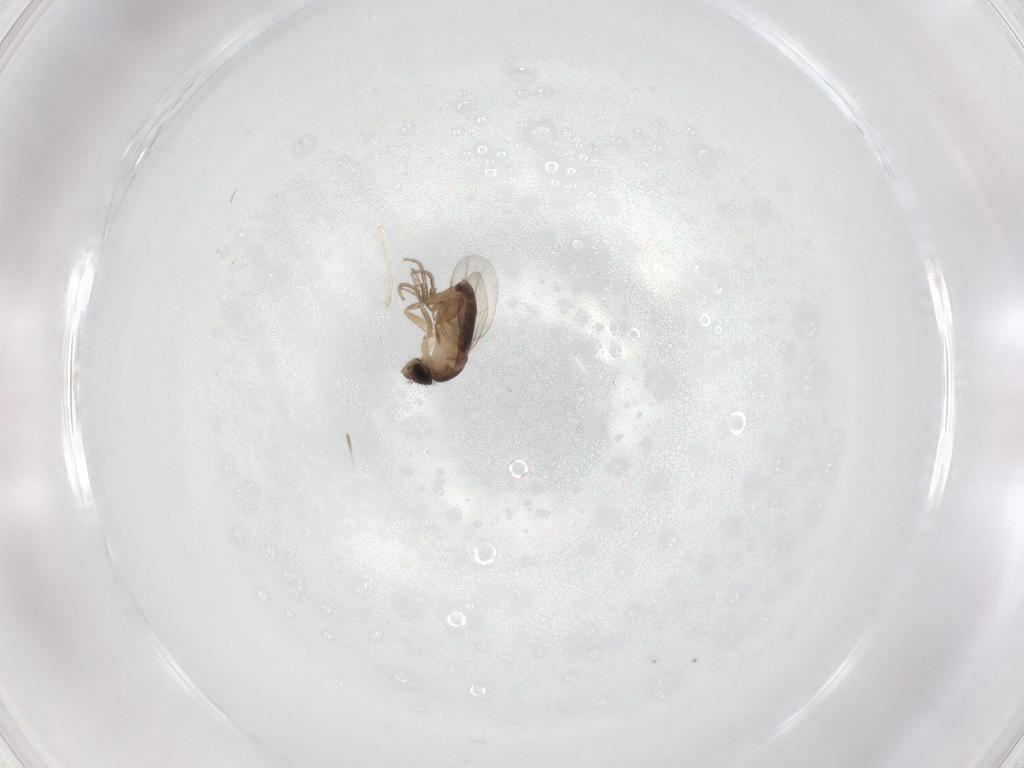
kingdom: Animalia
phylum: Arthropoda
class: Insecta
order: Diptera
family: Phoridae
